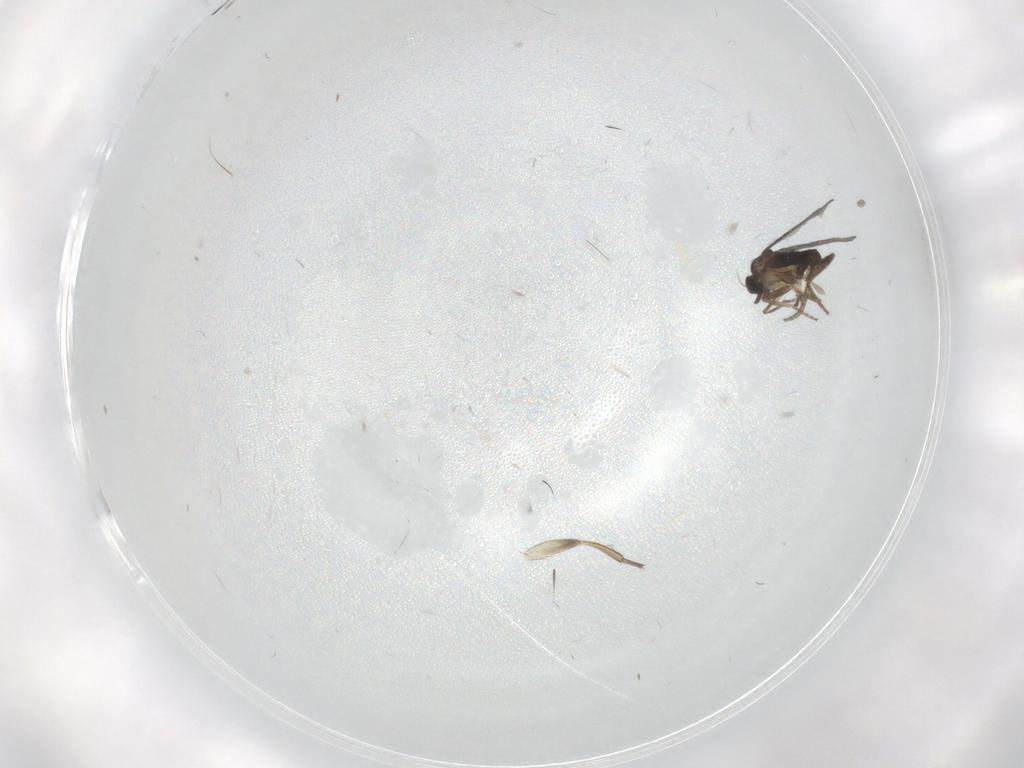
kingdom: Animalia
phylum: Arthropoda
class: Insecta
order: Diptera
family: Phoridae
